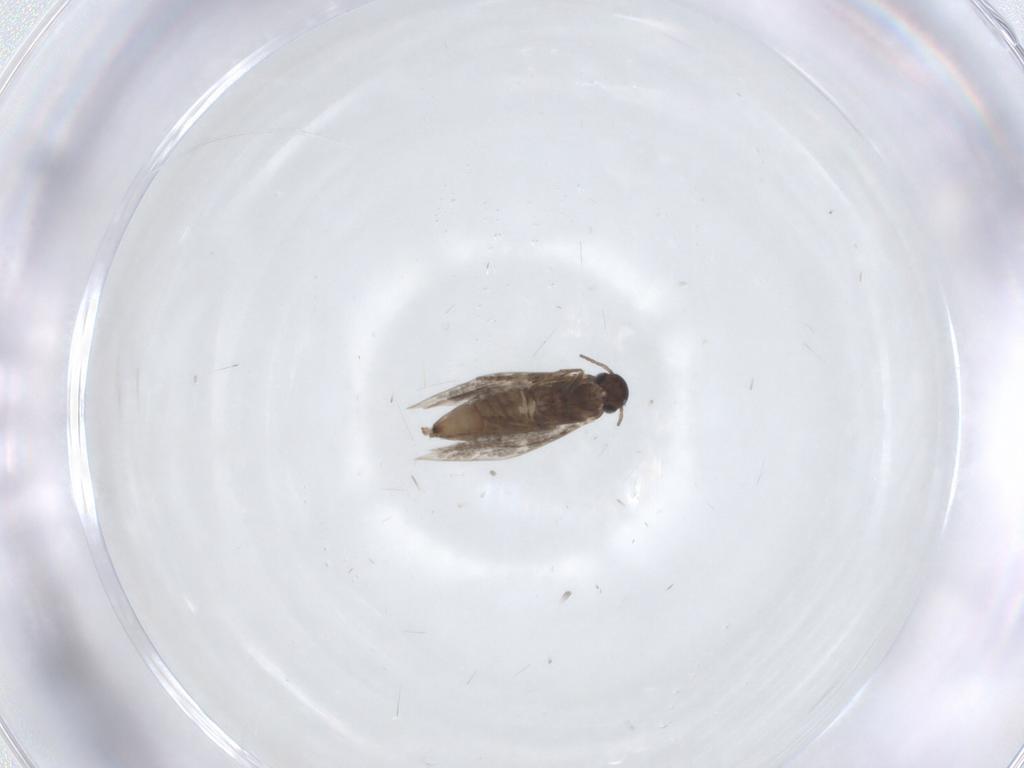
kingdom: Animalia
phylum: Arthropoda
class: Insecta
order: Lepidoptera
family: Heliozelidae
